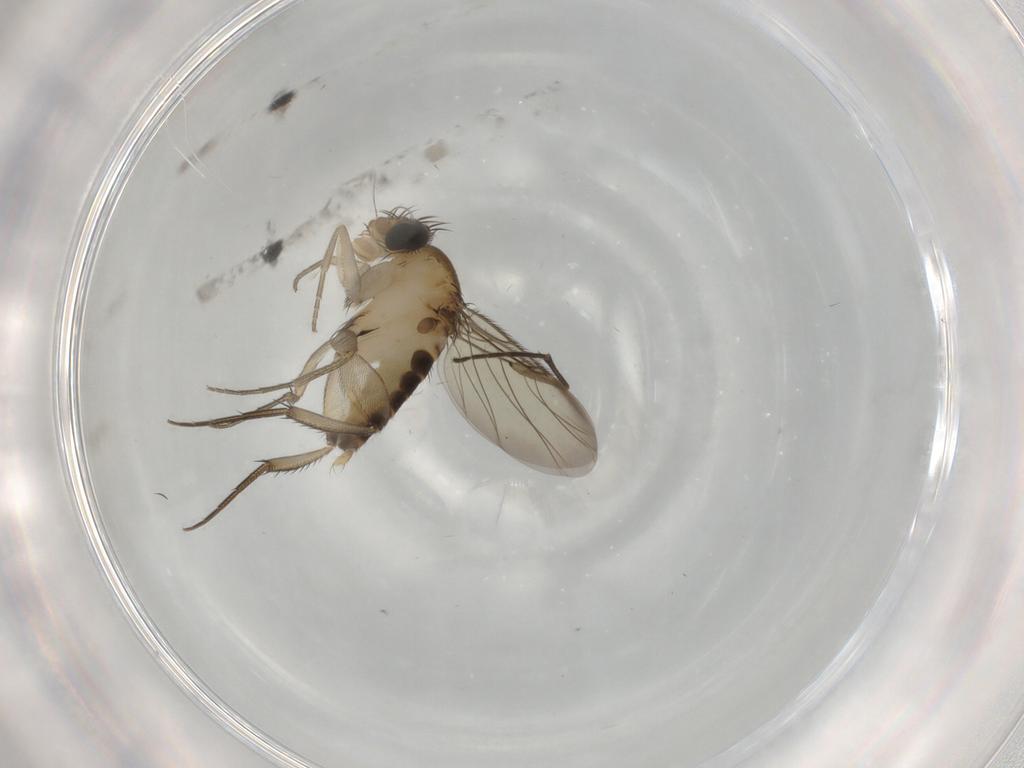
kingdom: Animalia
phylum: Arthropoda
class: Insecta
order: Diptera
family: Phoridae
